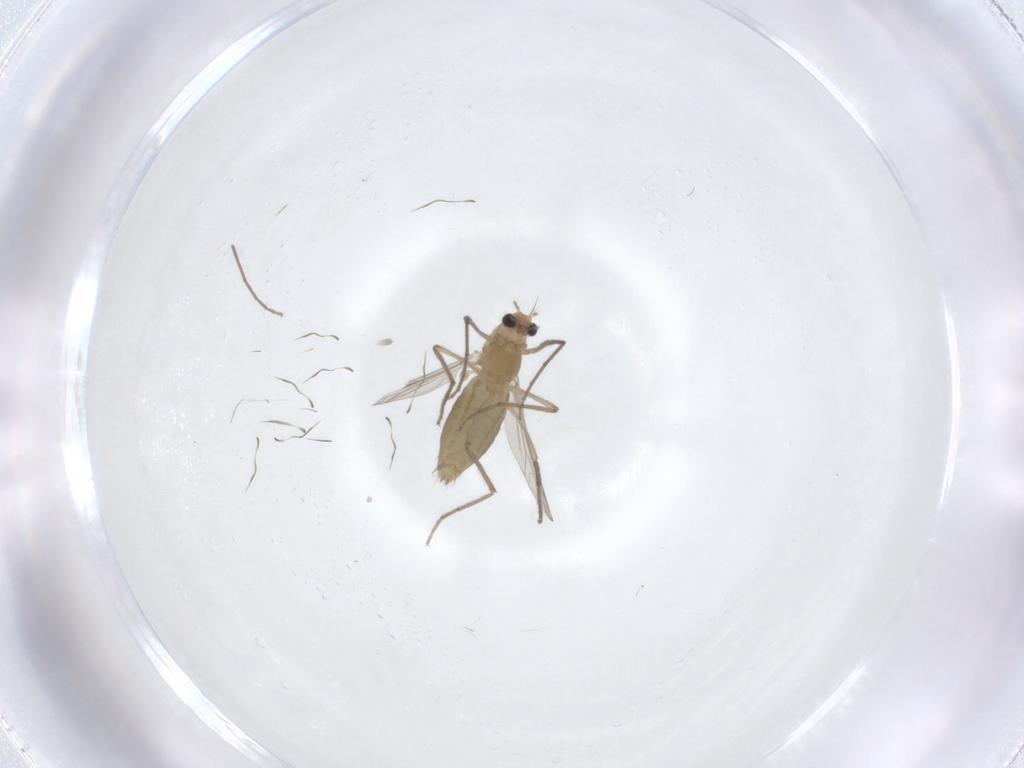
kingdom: Animalia
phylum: Arthropoda
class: Insecta
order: Diptera
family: Chironomidae
